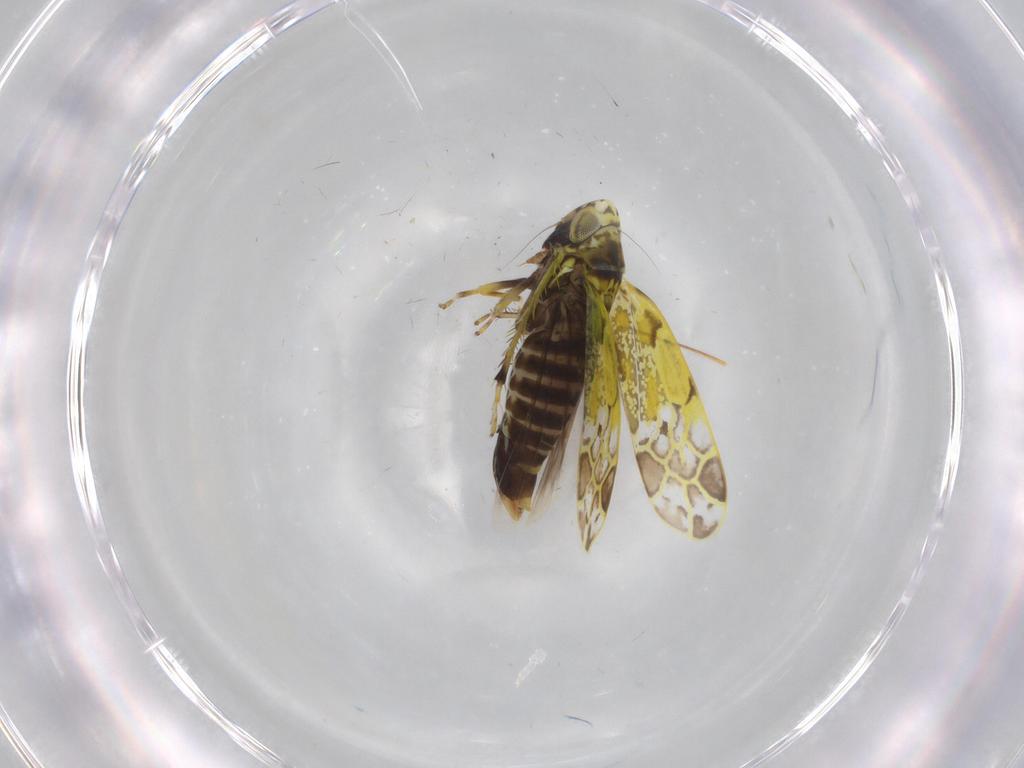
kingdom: Animalia
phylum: Arthropoda
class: Insecta
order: Hemiptera
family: Cicadellidae
